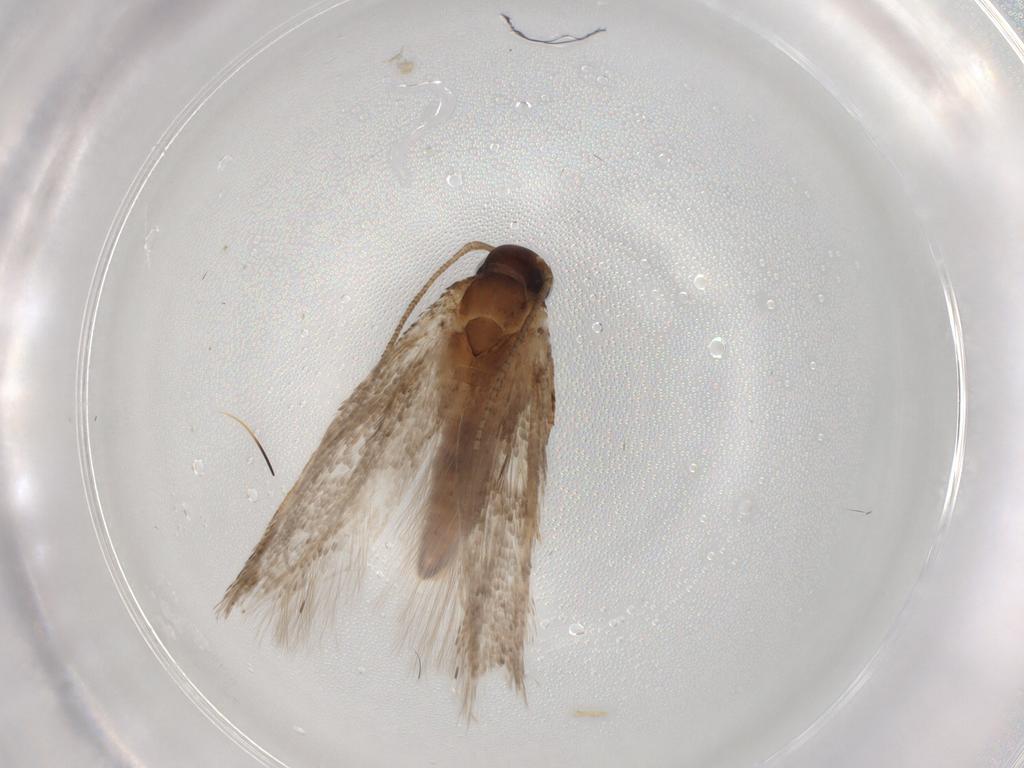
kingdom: Animalia
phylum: Arthropoda
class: Insecta
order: Lepidoptera
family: Gelechiidae
